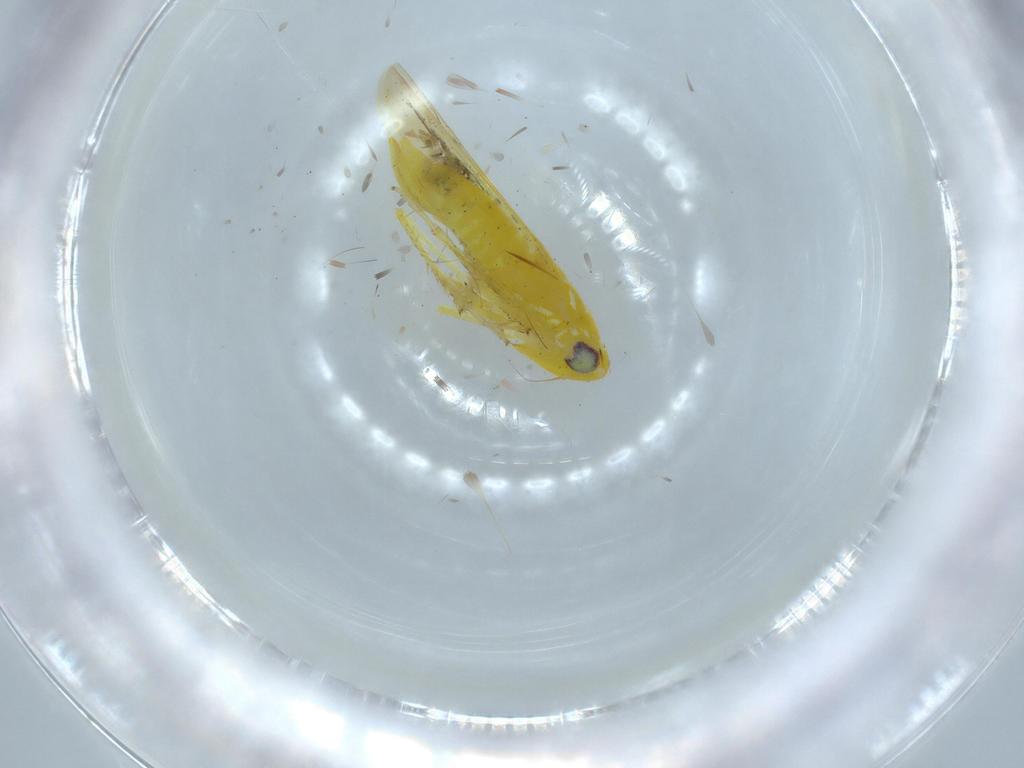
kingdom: Animalia
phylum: Arthropoda
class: Insecta
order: Hemiptera
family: Cicadellidae
